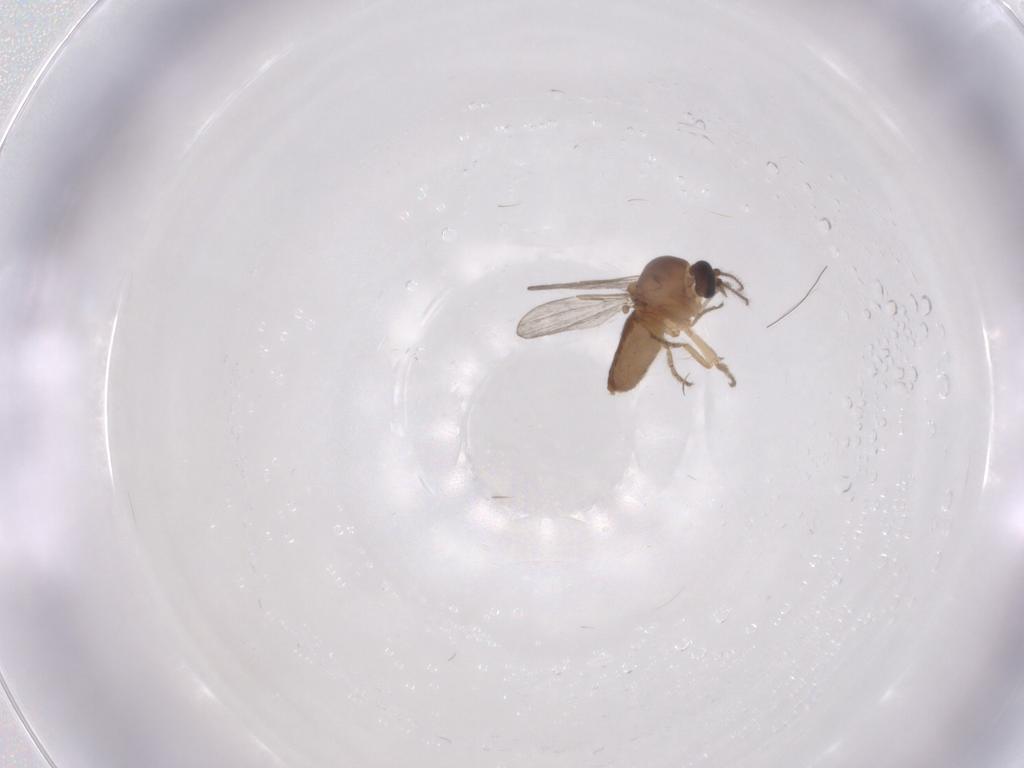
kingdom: Animalia
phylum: Arthropoda
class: Insecta
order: Diptera
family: Ceratopogonidae
